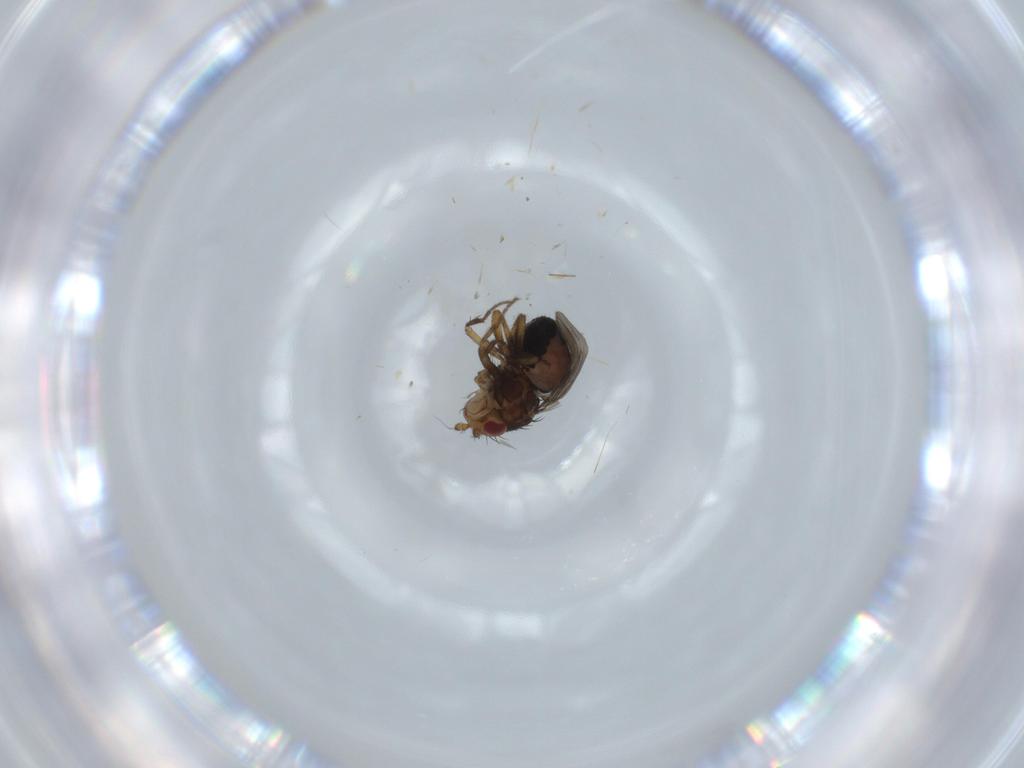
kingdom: Animalia
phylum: Arthropoda
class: Insecta
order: Diptera
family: Sphaeroceridae
